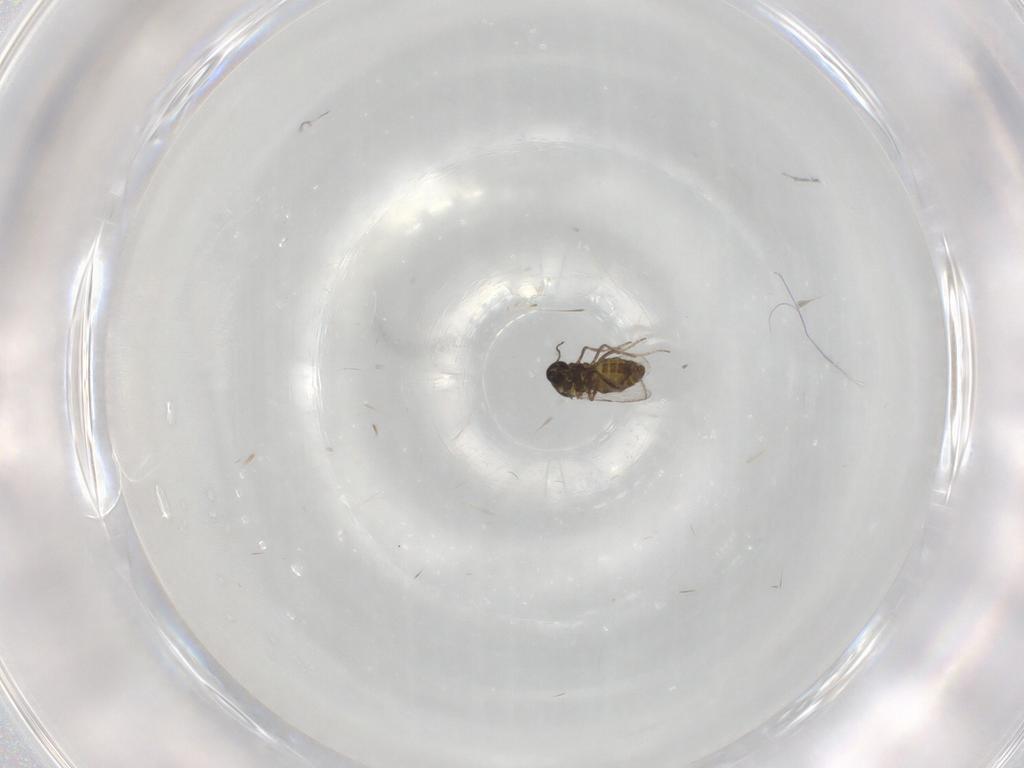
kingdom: Animalia
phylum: Arthropoda
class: Insecta
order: Diptera
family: Ceratopogonidae
